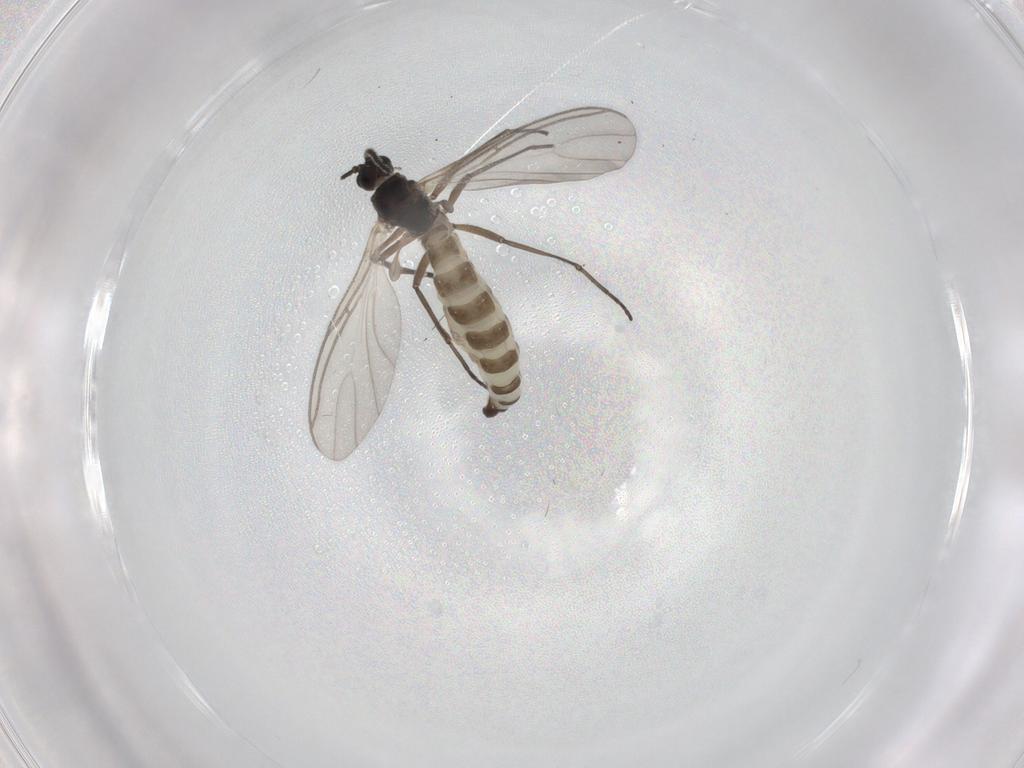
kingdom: Animalia
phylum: Arthropoda
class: Insecta
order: Diptera
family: Sciaridae
